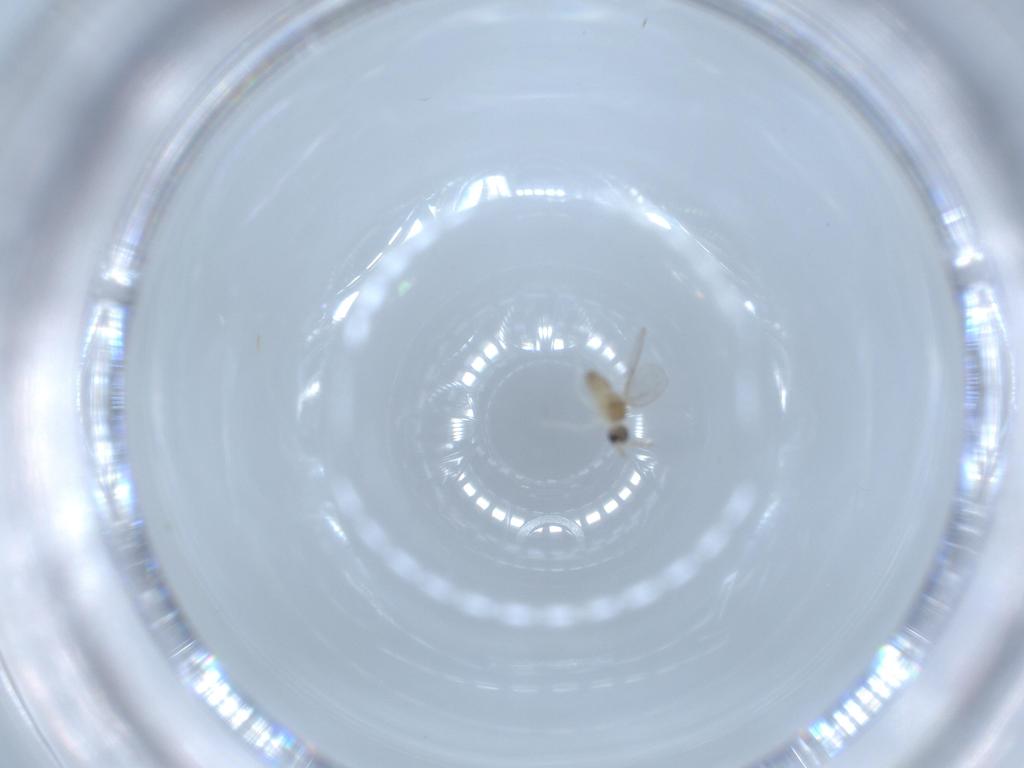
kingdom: Animalia
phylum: Arthropoda
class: Insecta
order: Diptera
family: Cecidomyiidae
